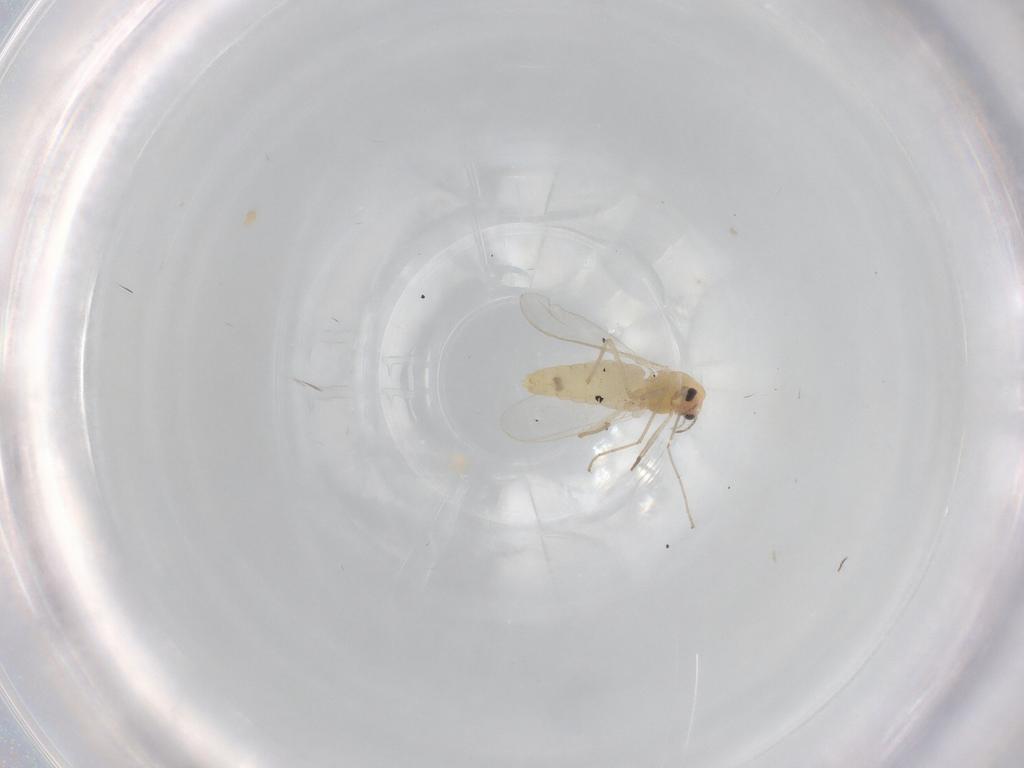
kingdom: Animalia
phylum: Arthropoda
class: Insecta
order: Diptera
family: Chironomidae
